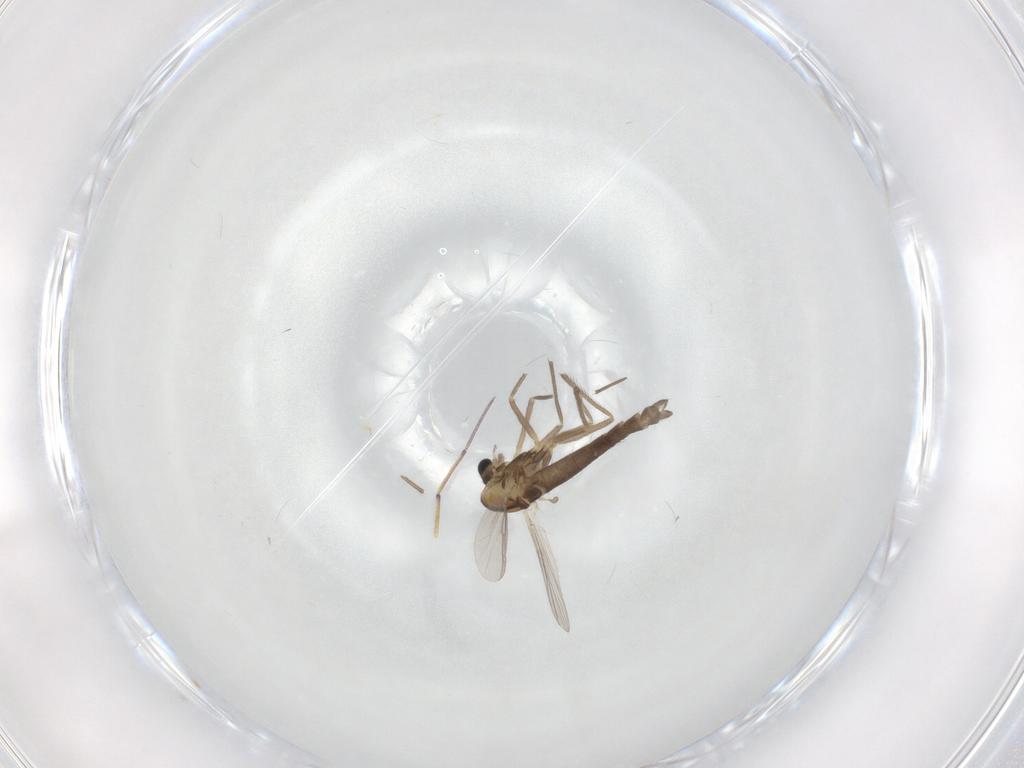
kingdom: Animalia
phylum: Arthropoda
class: Insecta
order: Diptera
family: Chironomidae
